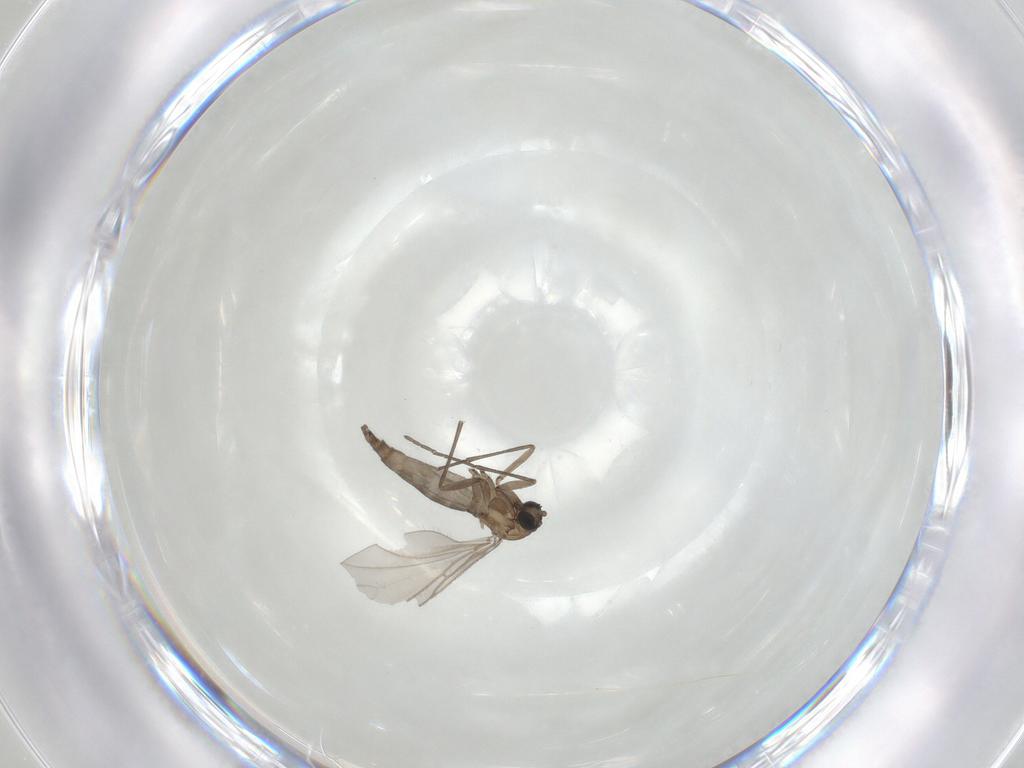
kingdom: Animalia
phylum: Arthropoda
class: Insecta
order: Diptera
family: Sciaridae
